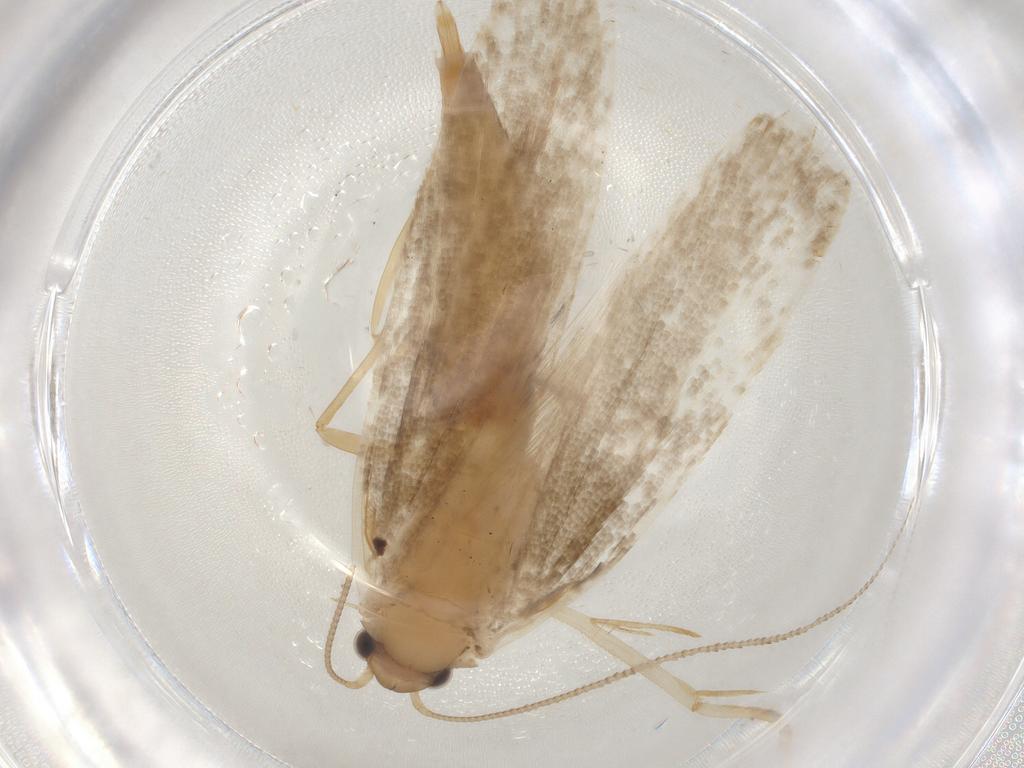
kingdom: Animalia
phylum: Arthropoda
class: Insecta
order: Lepidoptera
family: Tineidae
